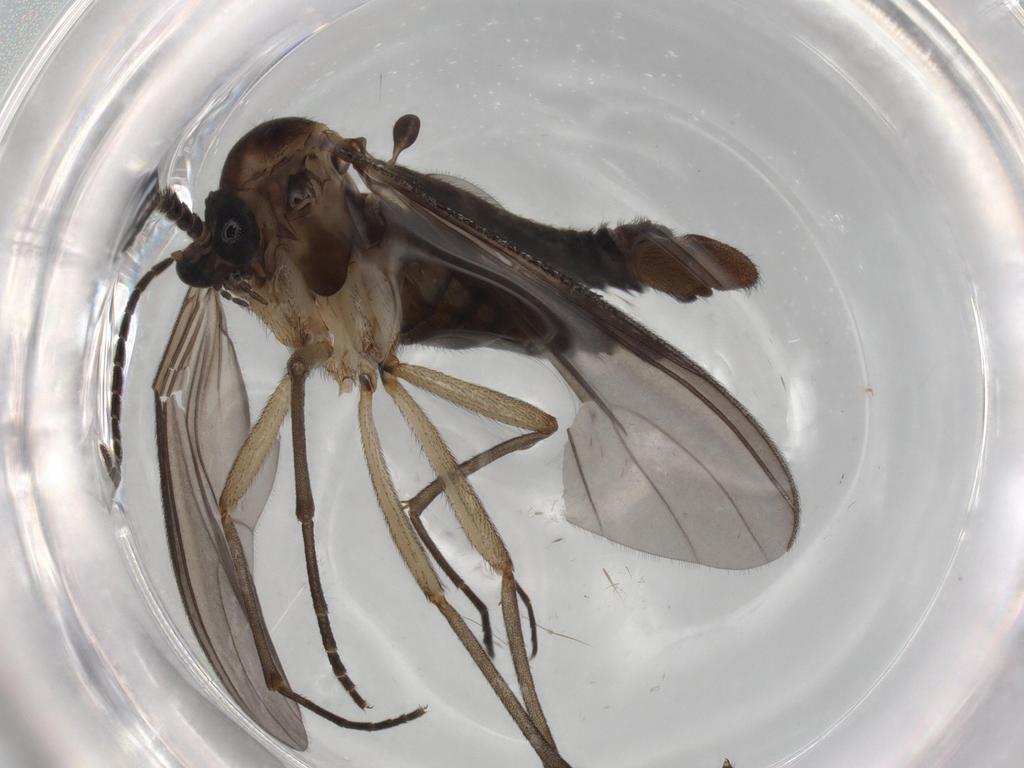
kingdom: Animalia
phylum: Arthropoda
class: Insecta
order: Diptera
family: Sciaridae
